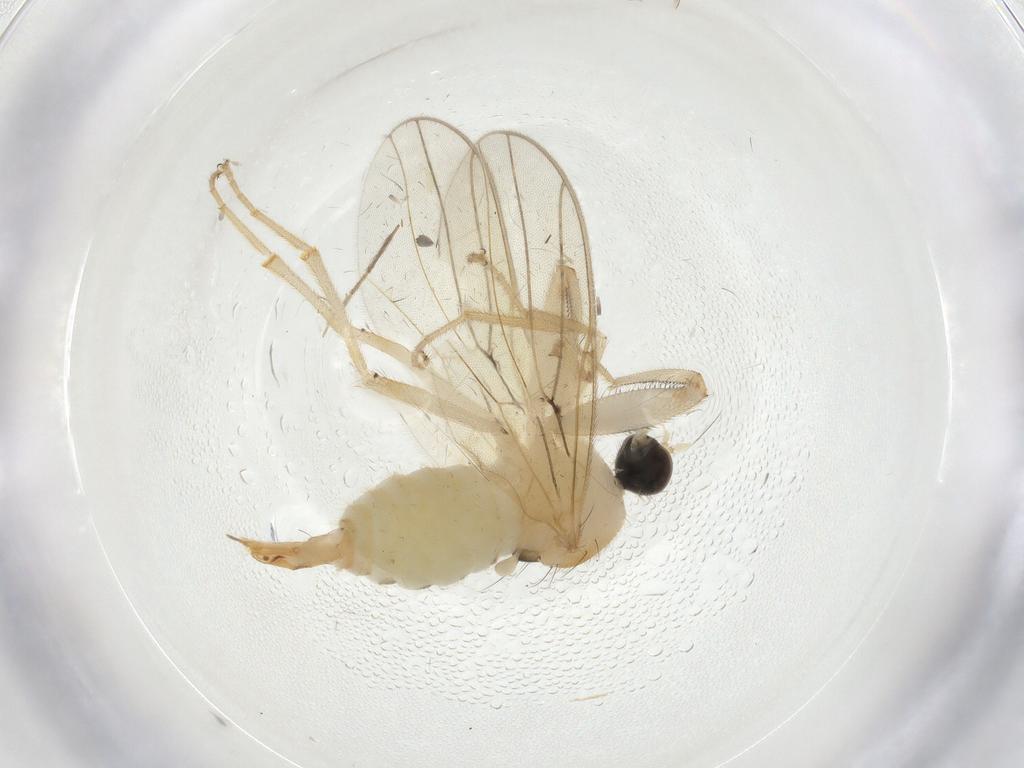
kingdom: Animalia
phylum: Arthropoda
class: Insecta
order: Diptera
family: Hybotidae
